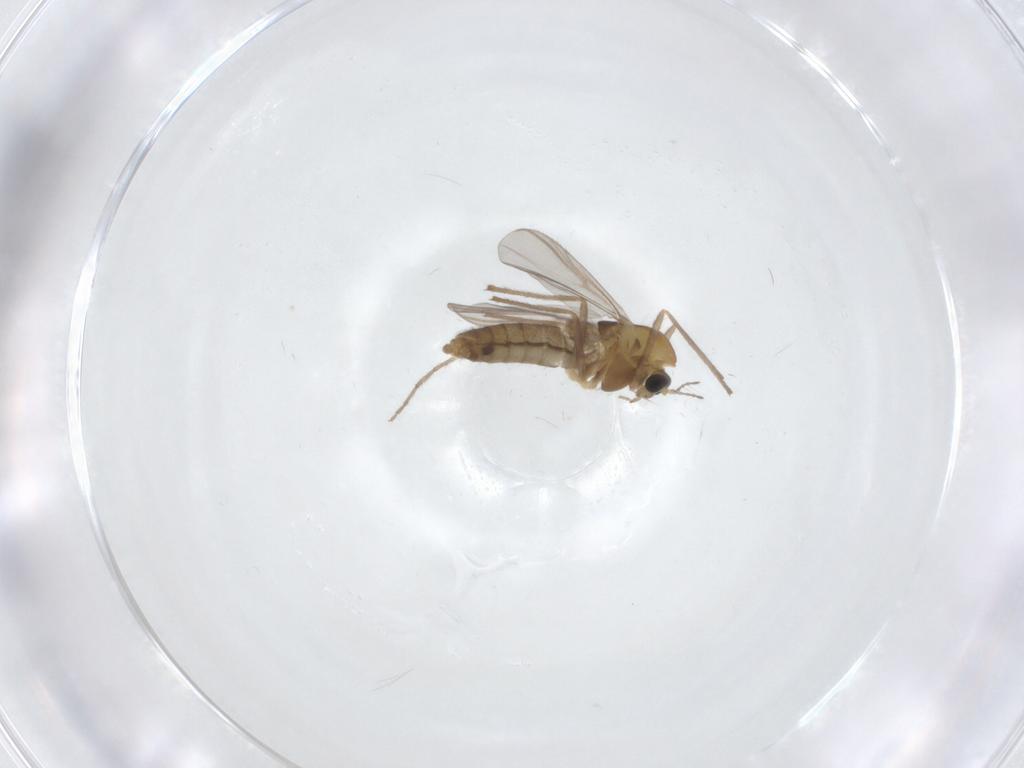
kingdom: Animalia
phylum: Arthropoda
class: Insecta
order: Diptera
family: Chironomidae
